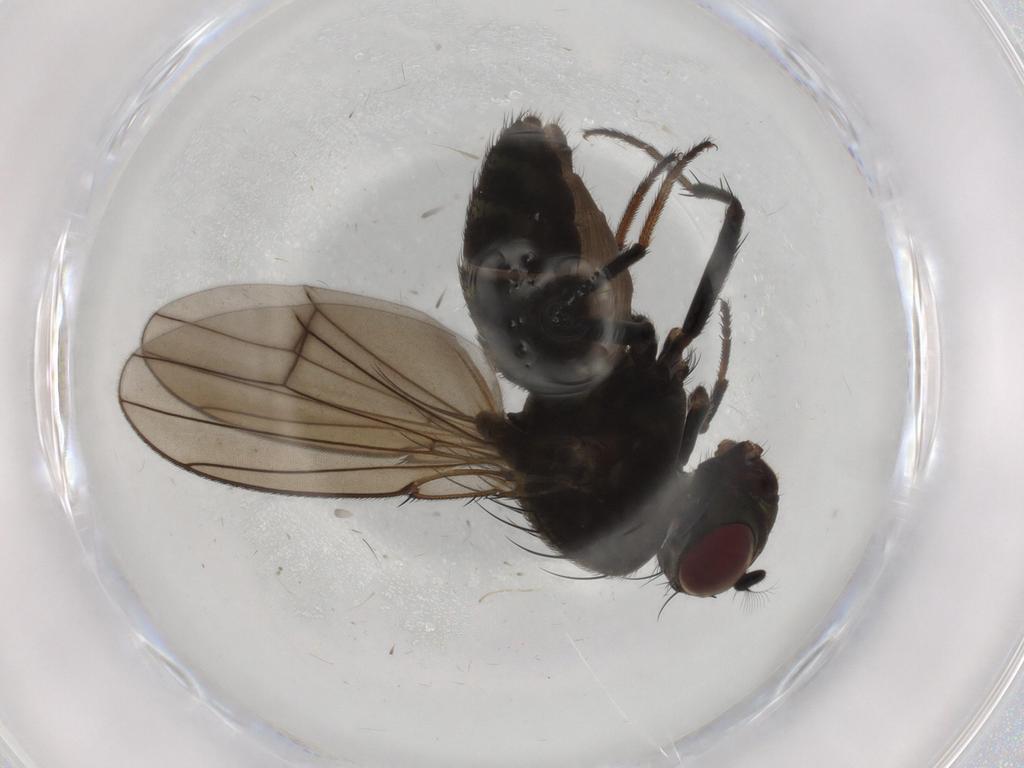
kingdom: Animalia
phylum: Arthropoda
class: Insecta
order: Diptera
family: Ephydridae
